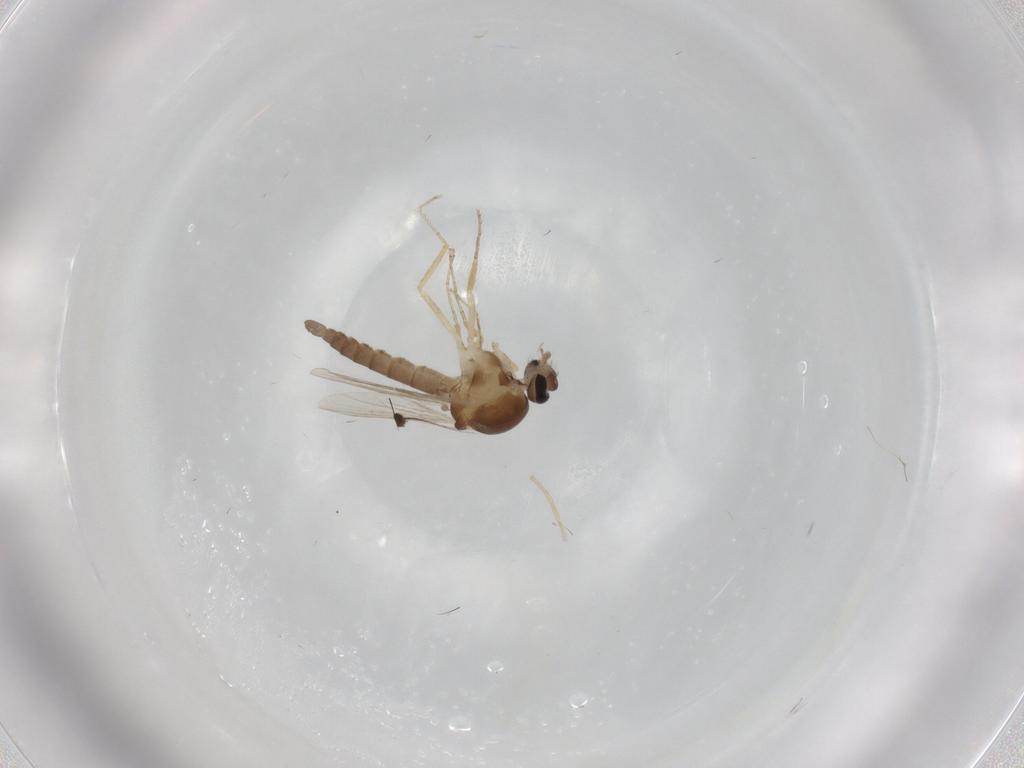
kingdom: Animalia
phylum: Arthropoda
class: Insecta
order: Diptera
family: Ceratopogonidae
